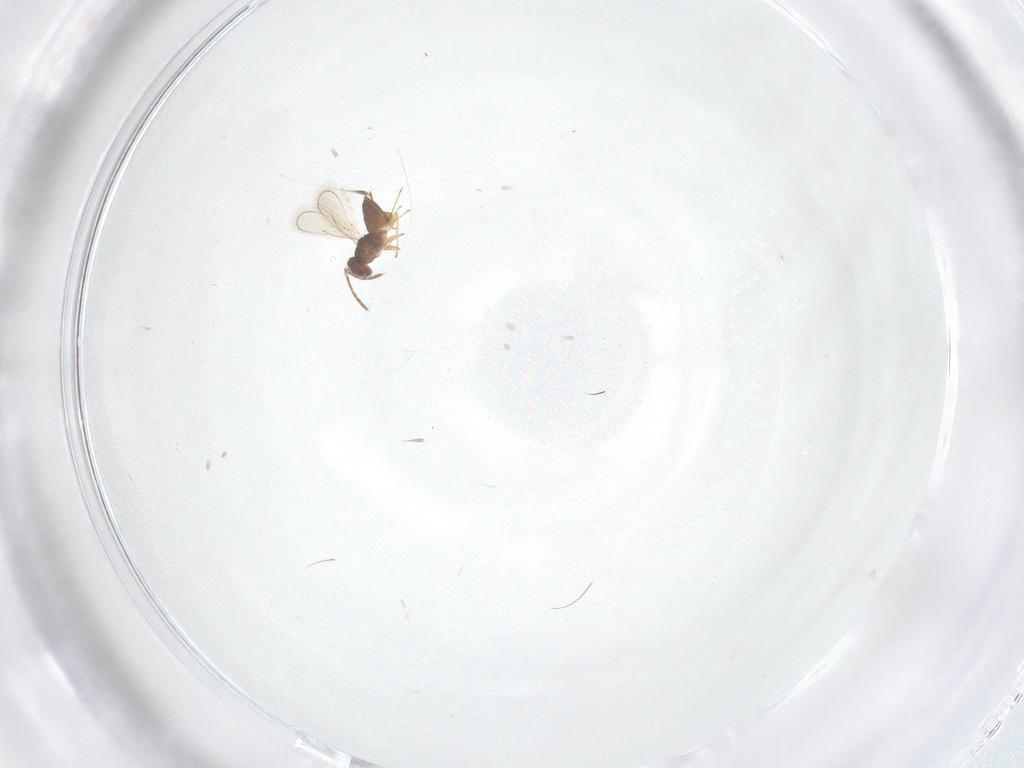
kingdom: Animalia
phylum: Arthropoda
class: Insecta
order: Hymenoptera
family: Eulophidae
